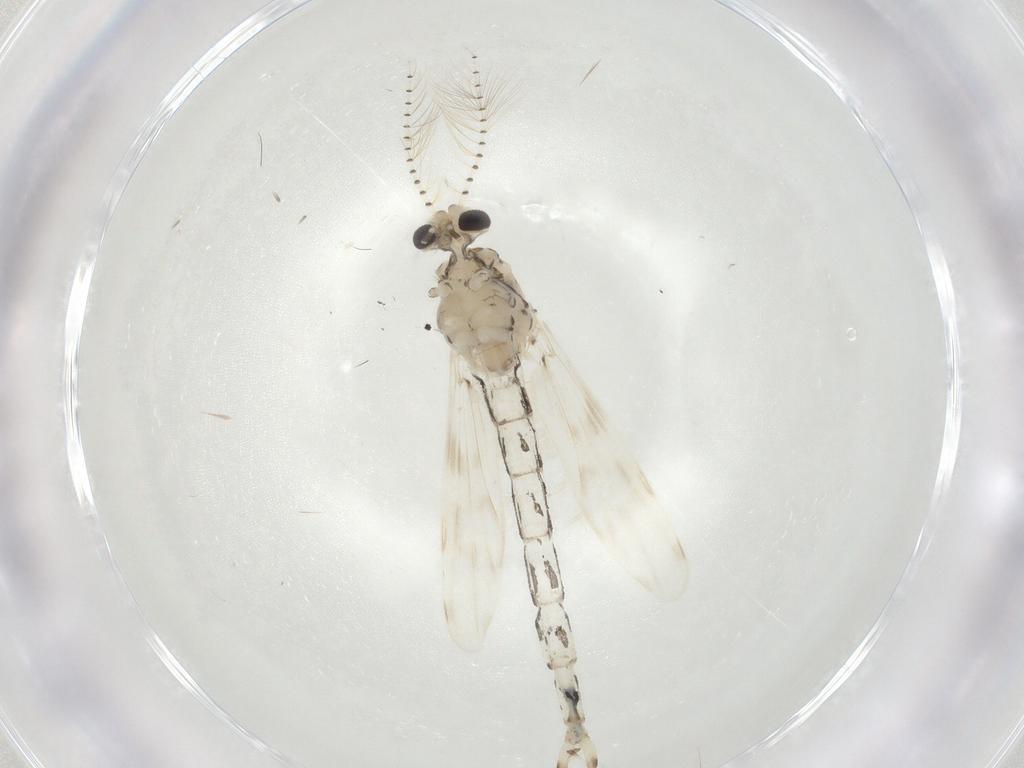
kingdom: Animalia
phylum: Arthropoda
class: Insecta
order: Diptera
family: Chaoboridae
